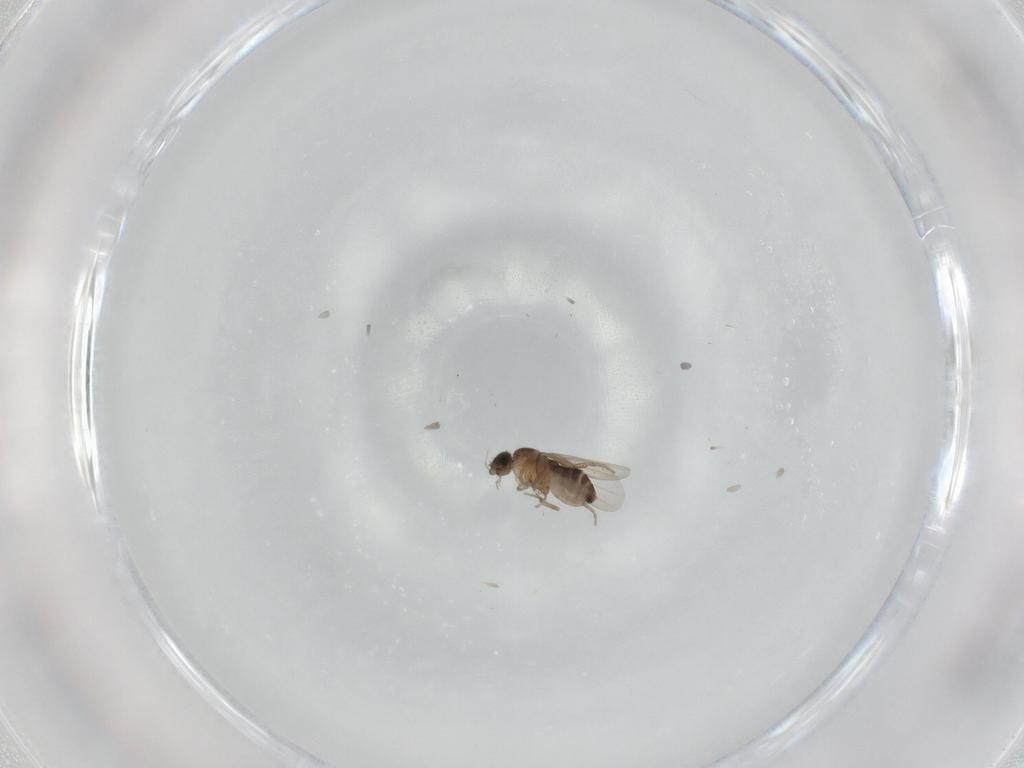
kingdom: Animalia
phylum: Arthropoda
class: Insecta
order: Diptera
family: Phoridae
